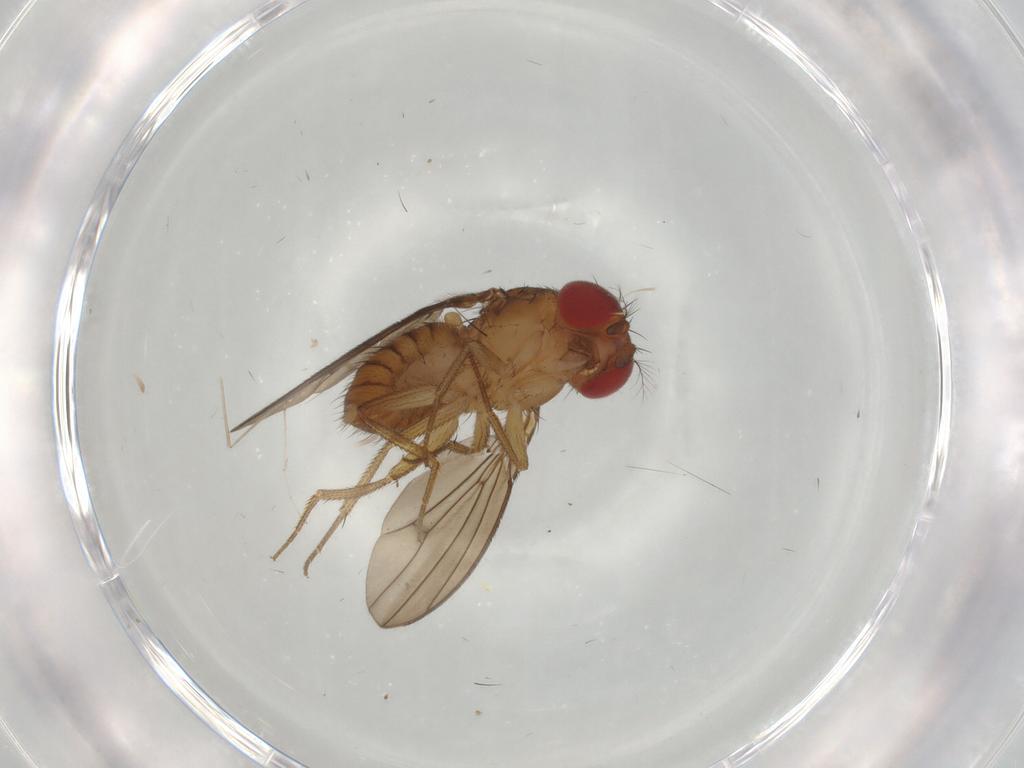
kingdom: Animalia
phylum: Arthropoda
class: Insecta
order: Diptera
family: Drosophilidae
